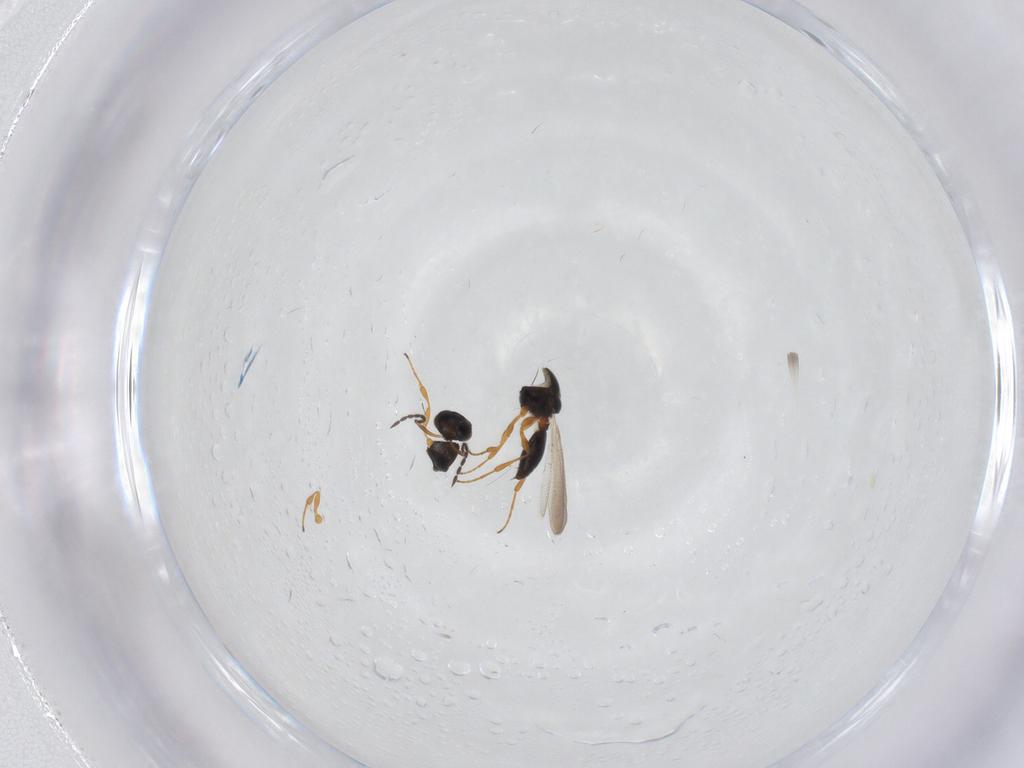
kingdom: Animalia
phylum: Arthropoda
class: Insecta
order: Hymenoptera
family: Platygastridae
